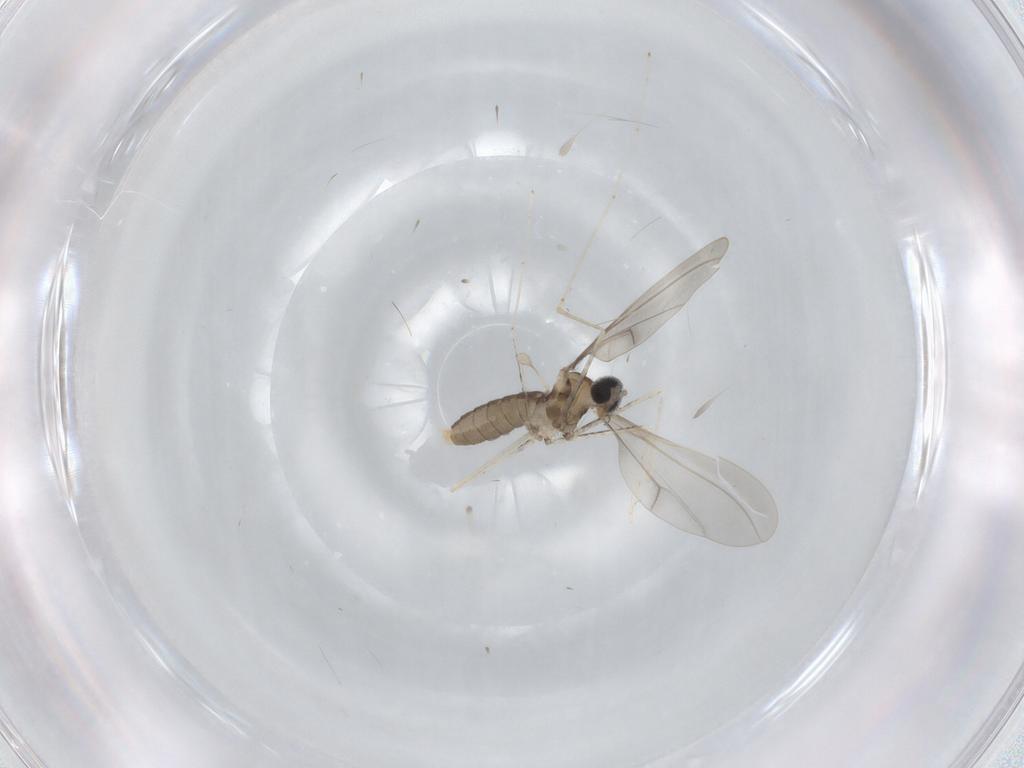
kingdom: Animalia
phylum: Arthropoda
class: Insecta
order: Diptera
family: Cecidomyiidae
